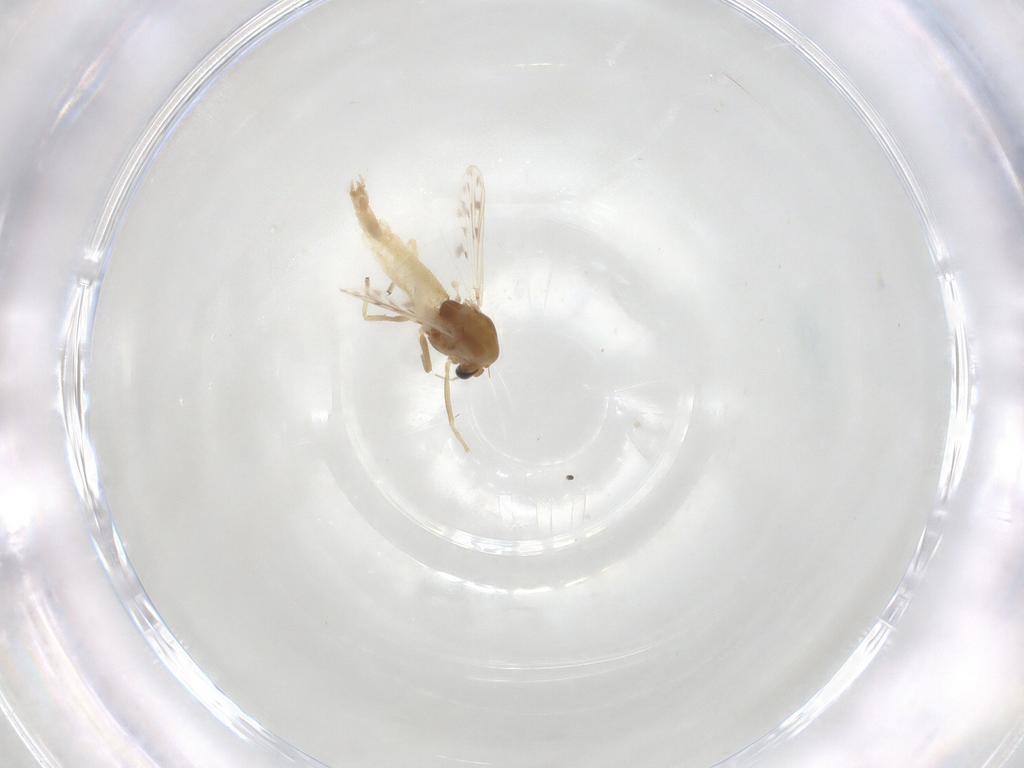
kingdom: Animalia
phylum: Arthropoda
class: Insecta
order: Diptera
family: Chironomidae
